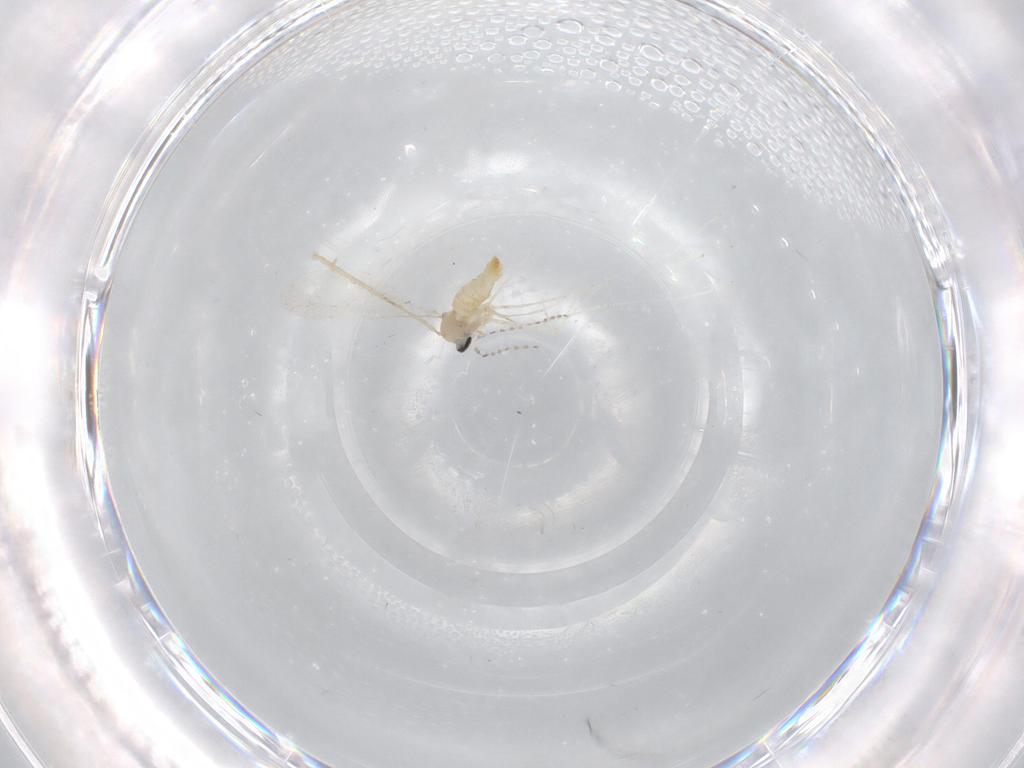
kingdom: Animalia
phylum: Arthropoda
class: Insecta
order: Diptera
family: Cecidomyiidae
